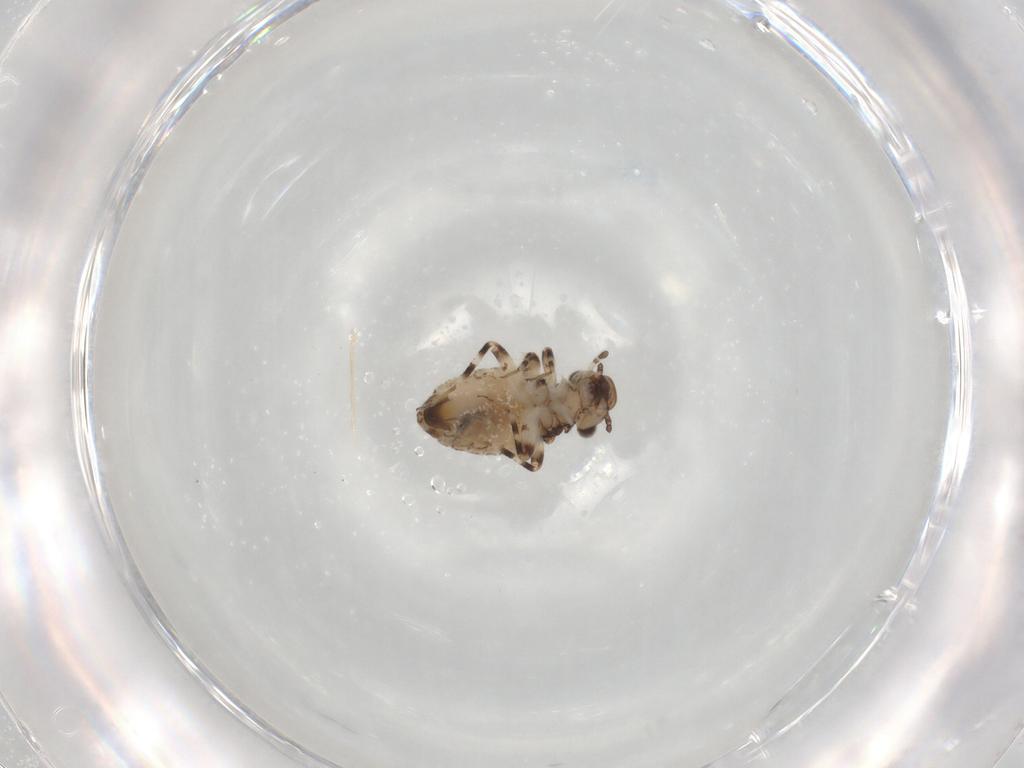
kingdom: Animalia
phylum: Arthropoda
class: Insecta
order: Psocodea
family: Trogiidae
